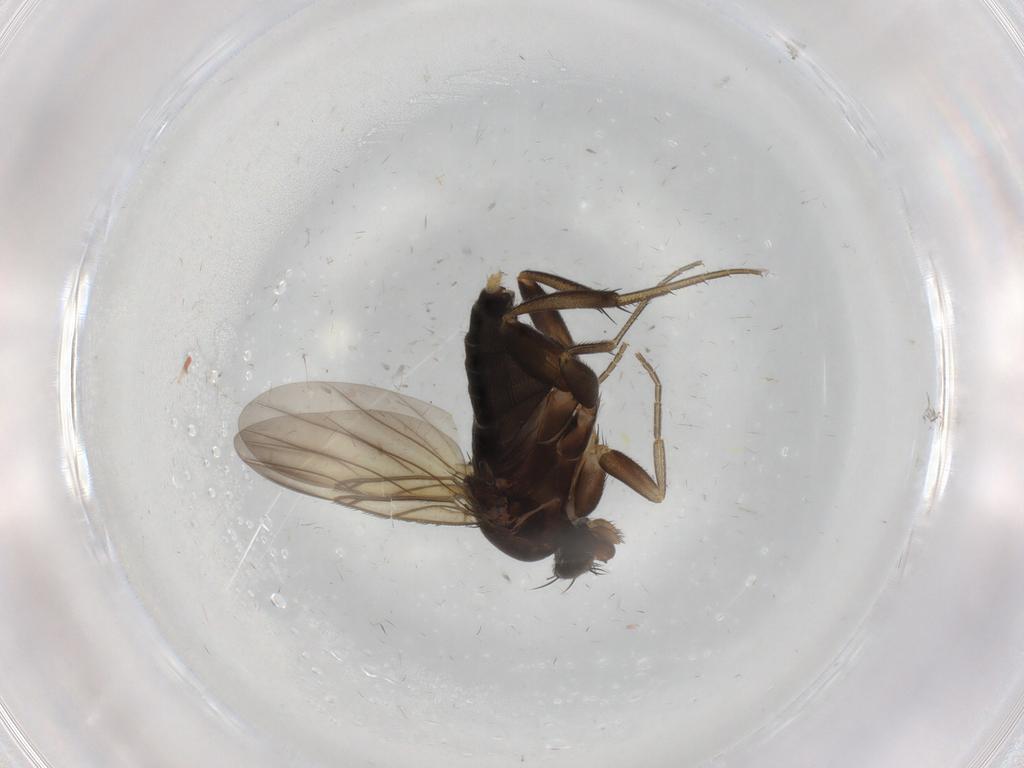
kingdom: Animalia
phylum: Arthropoda
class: Insecta
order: Diptera
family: Phoridae
